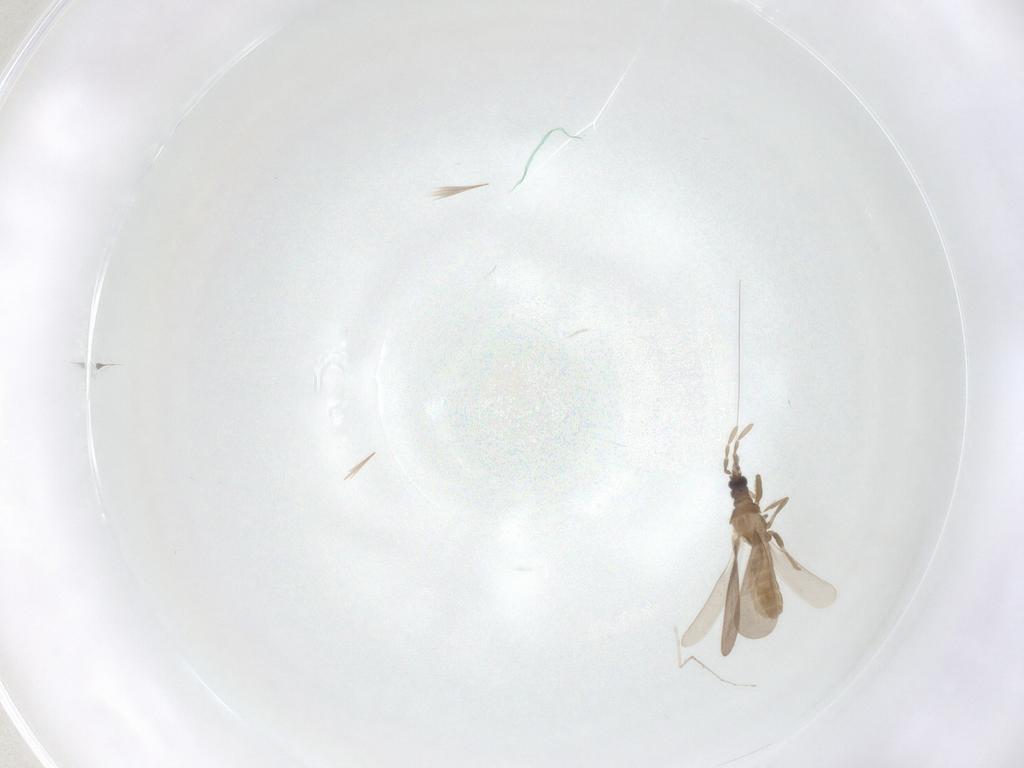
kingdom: Animalia
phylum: Arthropoda
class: Insecta
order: Hemiptera
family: Enicocephalidae
